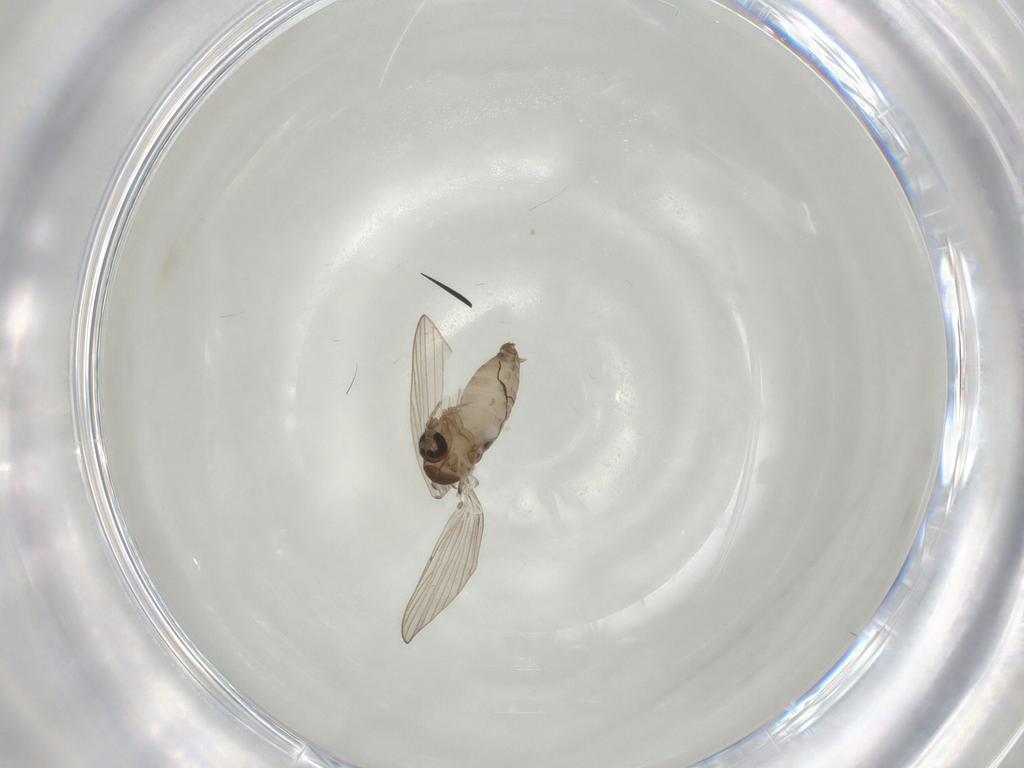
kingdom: Animalia
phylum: Arthropoda
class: Insecta
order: Diptera
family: Psychodidae
